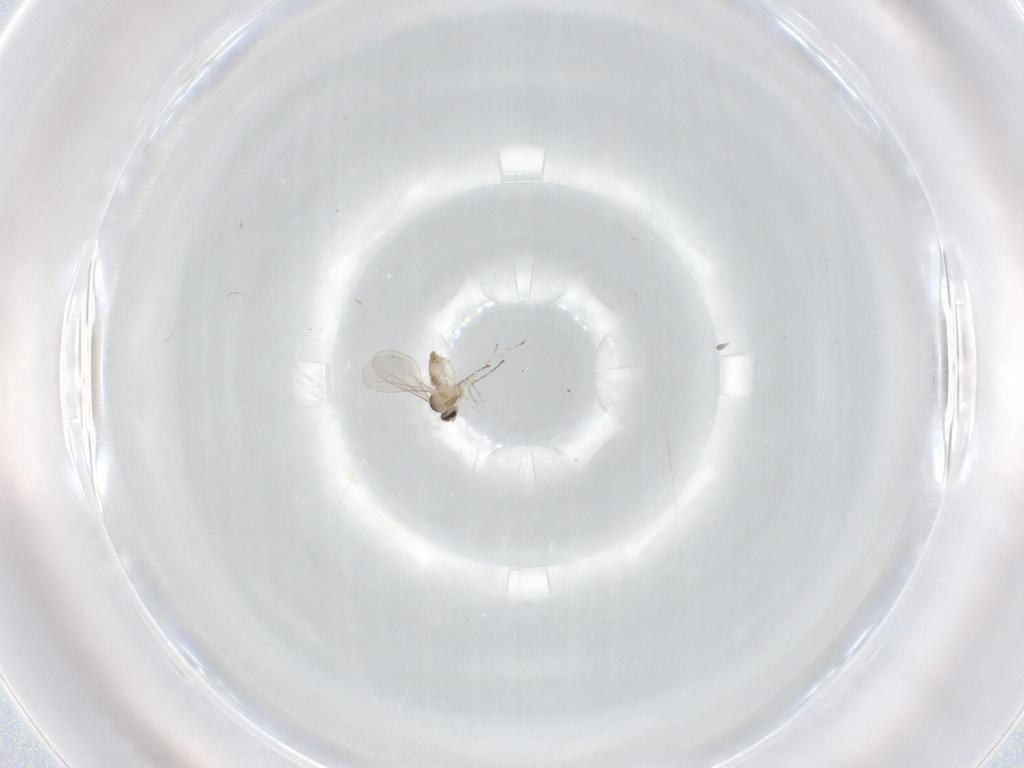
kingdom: Animalia
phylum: Arthropoda
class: Insecta
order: Diptera
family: Cecidomyiidae
